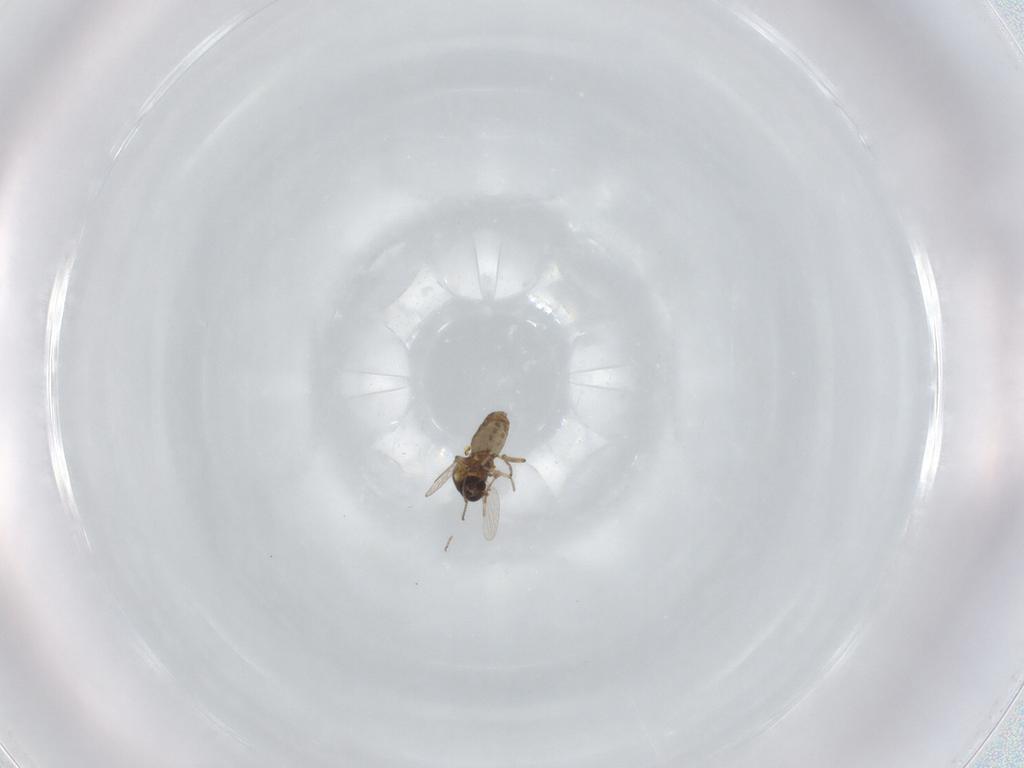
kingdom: Animalia
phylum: Arthropoda
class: Insecta
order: Diptera
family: Ceratopogonidae
